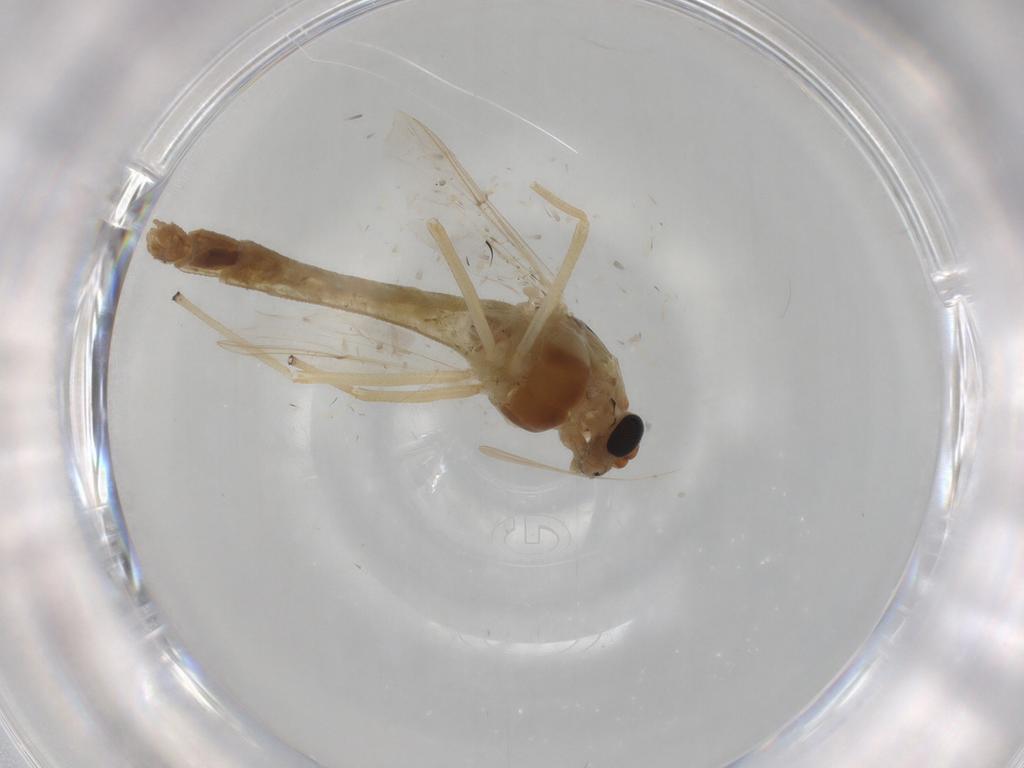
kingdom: Animalia
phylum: Arthropoda
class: Insecta
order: Diptera
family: Chironomidae
